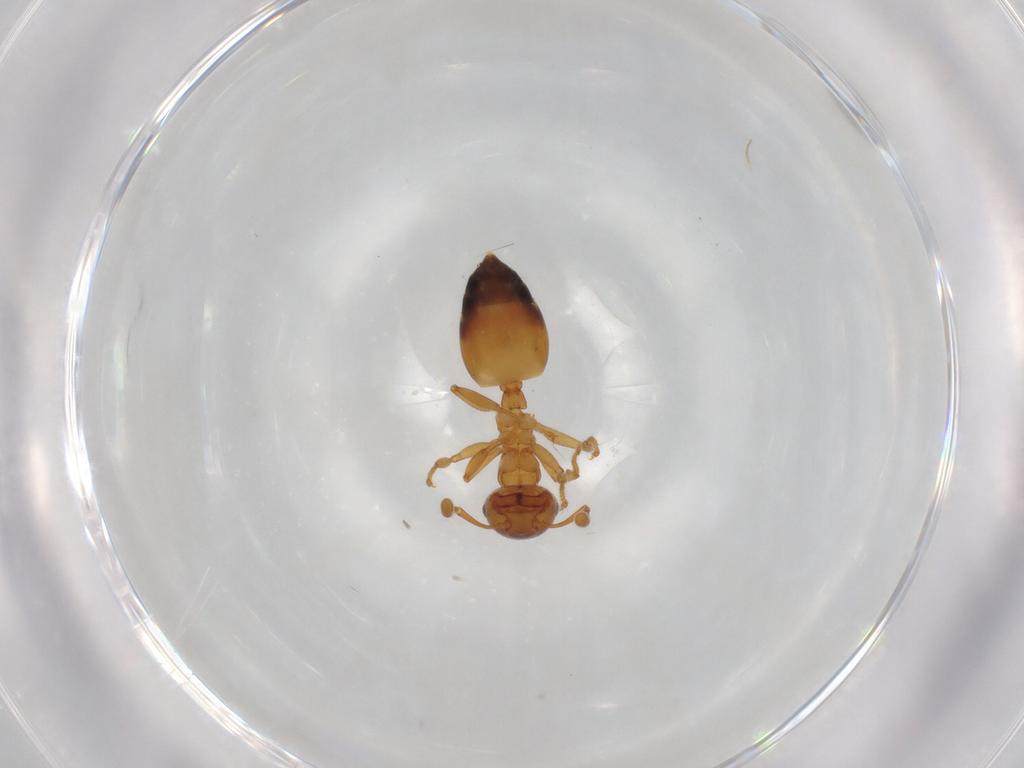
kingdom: Animalia
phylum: Arthropoda
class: Insecta
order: Hymenoptera
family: Formicidae
